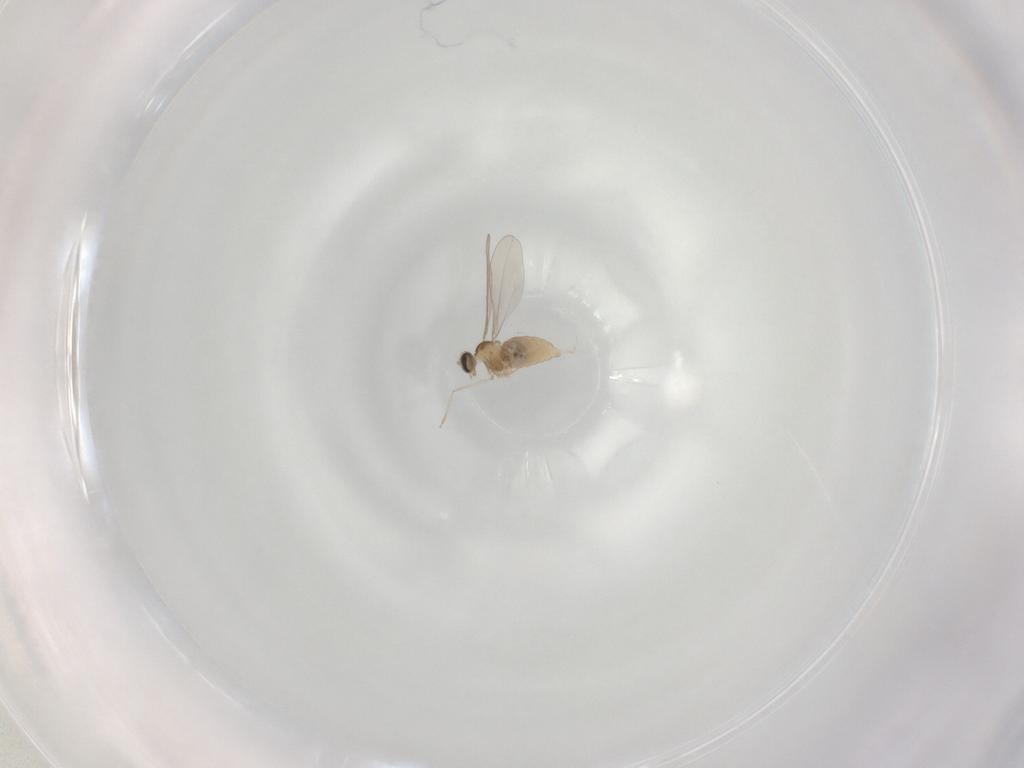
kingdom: Animalia
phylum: Arthropoda
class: Insecta
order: Diptera
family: Cecidomyiidae
